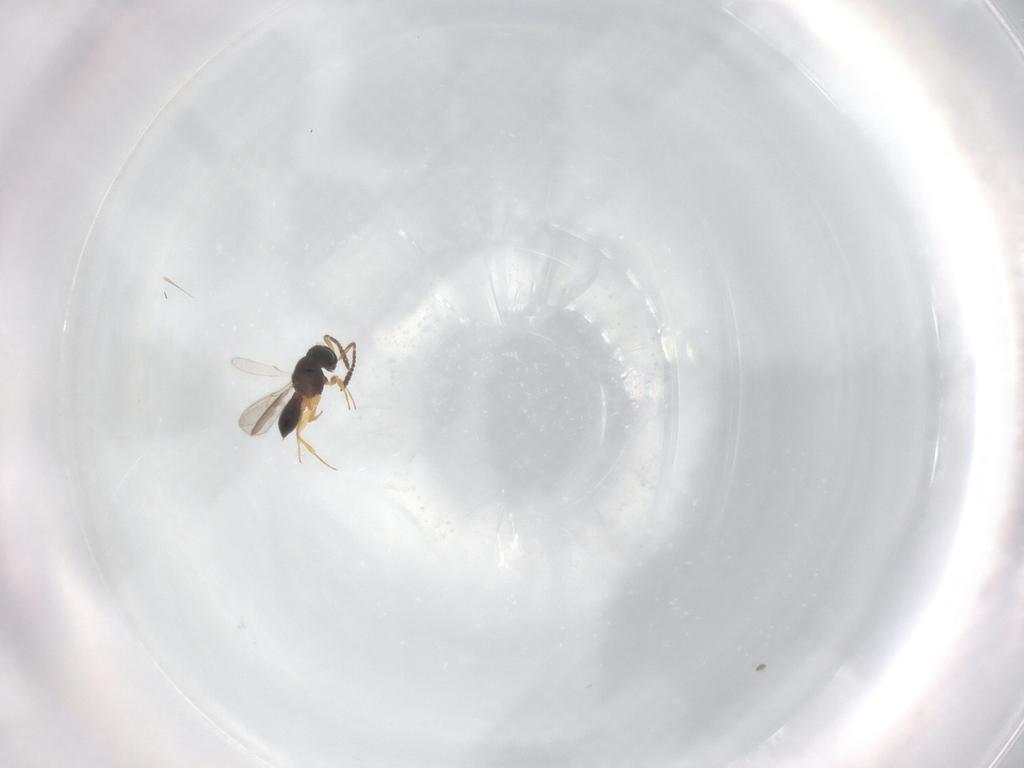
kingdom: Animalia
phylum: Arthropoda
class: Insecta
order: Hymenoptera
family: Scelionidae
